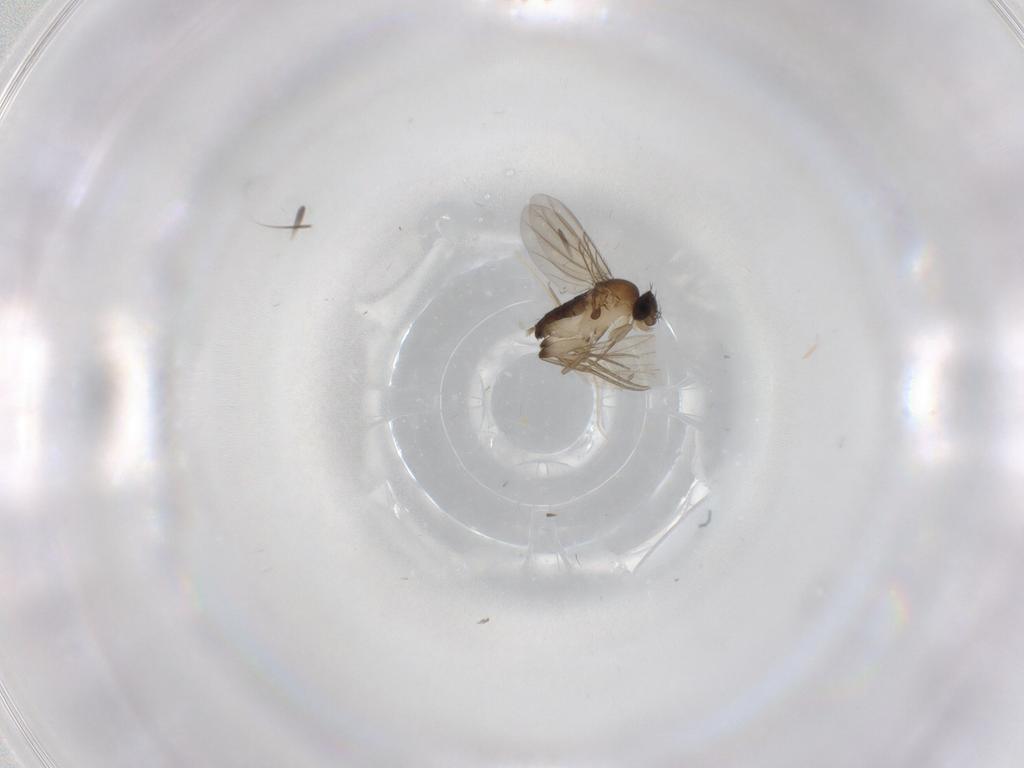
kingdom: Animalia
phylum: Arthropoda
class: Insecta
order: Diptera
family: Phoridae
